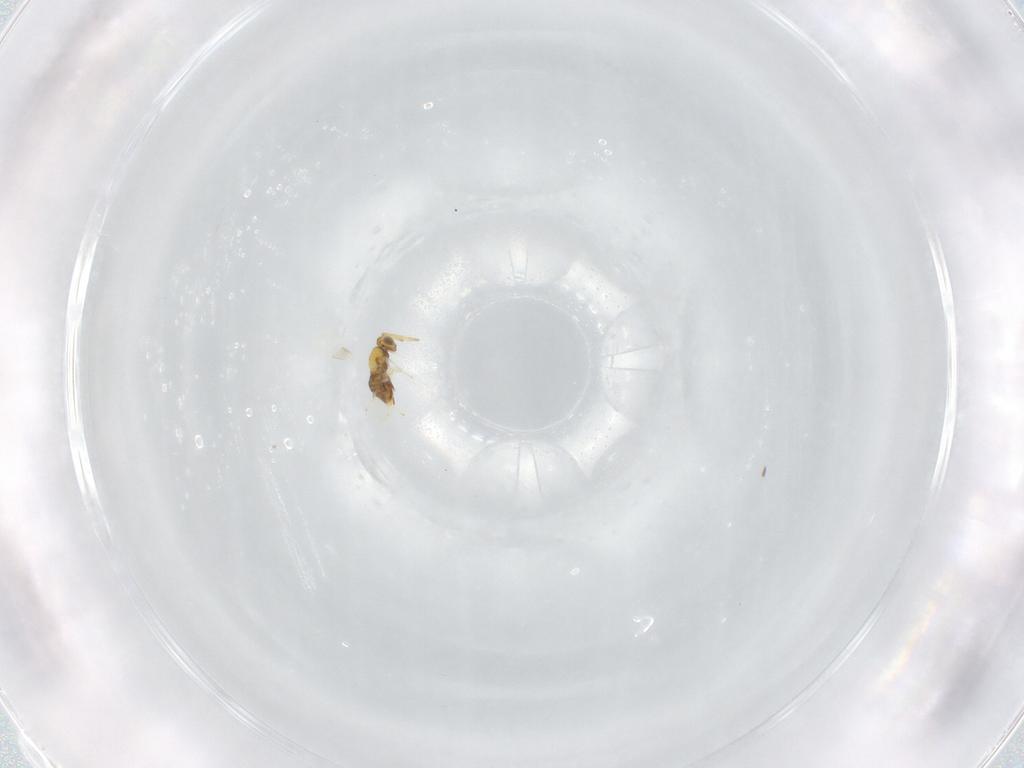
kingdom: Animalia
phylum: Arthropoda
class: Insecta
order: Hymenoptera
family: Aphelinidae
